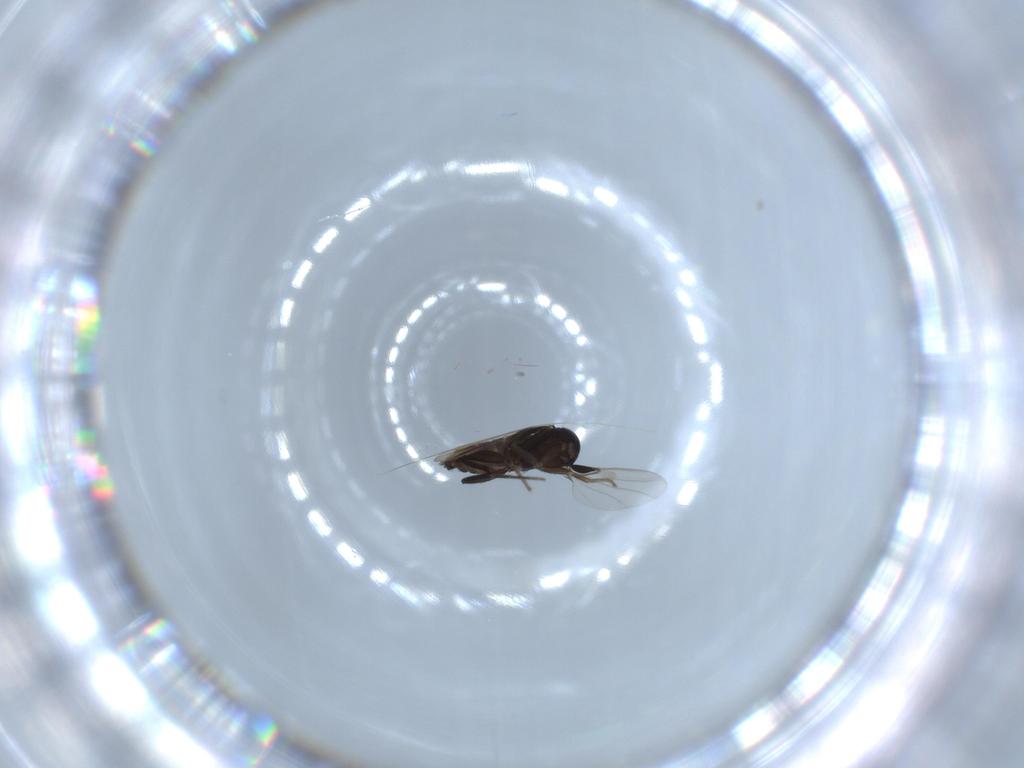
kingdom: Animalia
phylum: Arthropoda
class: Insecta
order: Diptera
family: Phoridae
